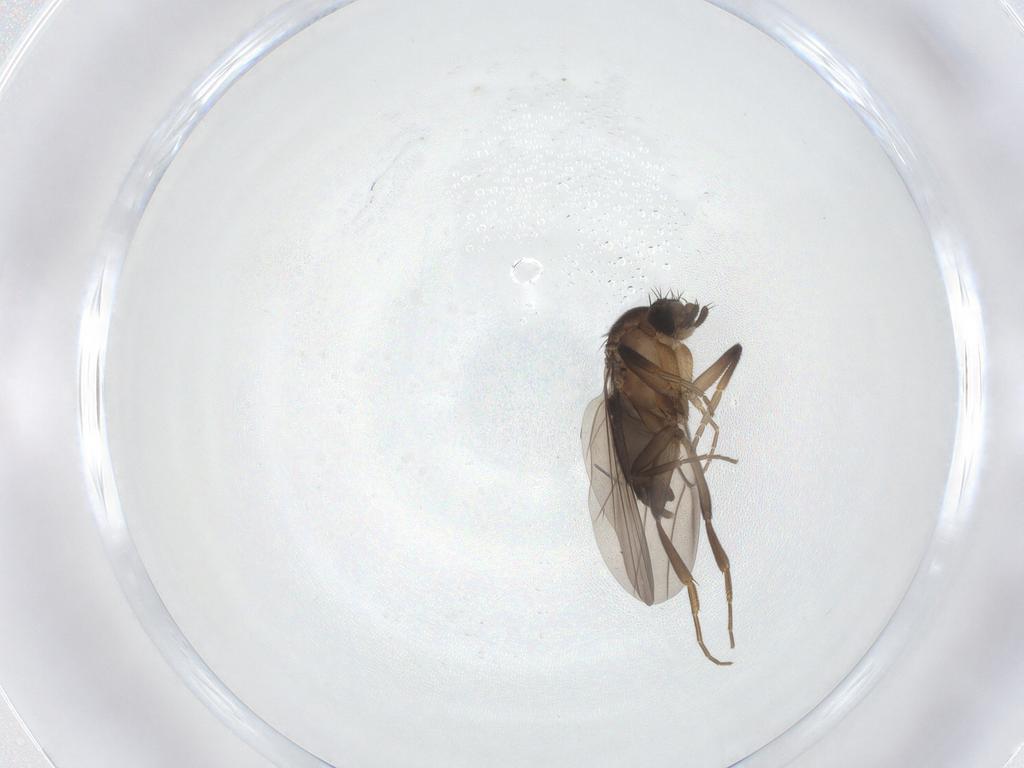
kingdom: Animalia
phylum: Arthropoda
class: Insecta
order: Diptera
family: Phoridae
